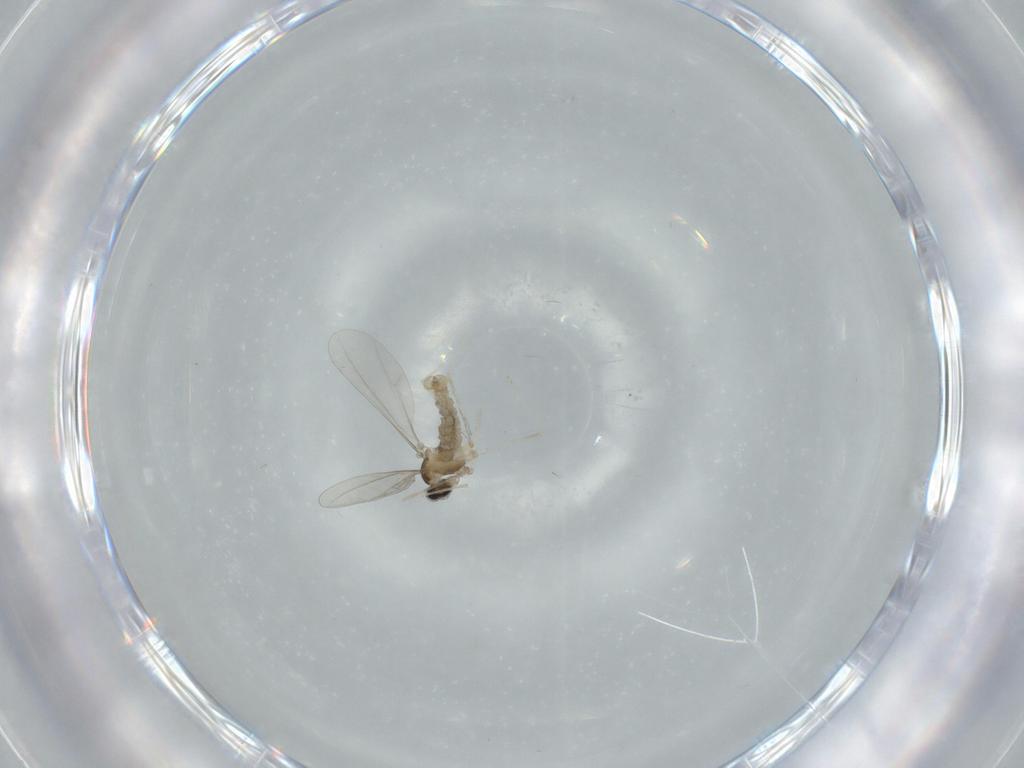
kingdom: Animalia
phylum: Arthropoda
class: Insecta
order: Diptera
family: Cecidomyiidae
